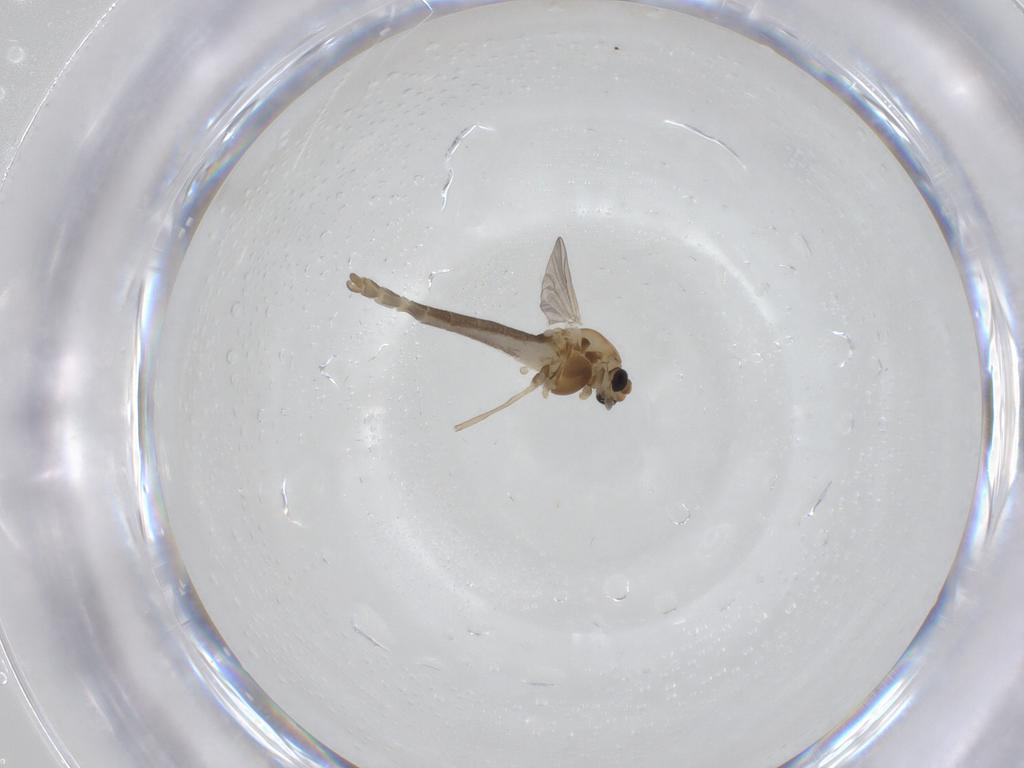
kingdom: Animalia
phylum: Arthropoda
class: Insecta
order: Diptera
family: Chironomidae
